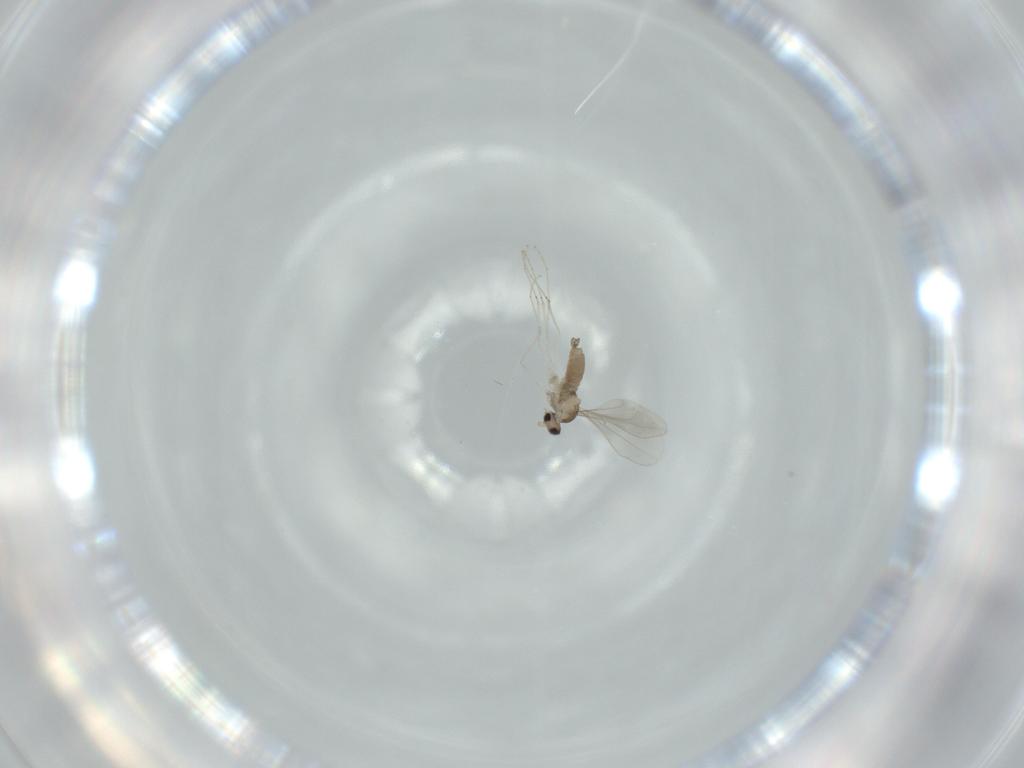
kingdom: Animalia
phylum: Arthropoda
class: Insecta
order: Diptera
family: Cecidomyiidae
